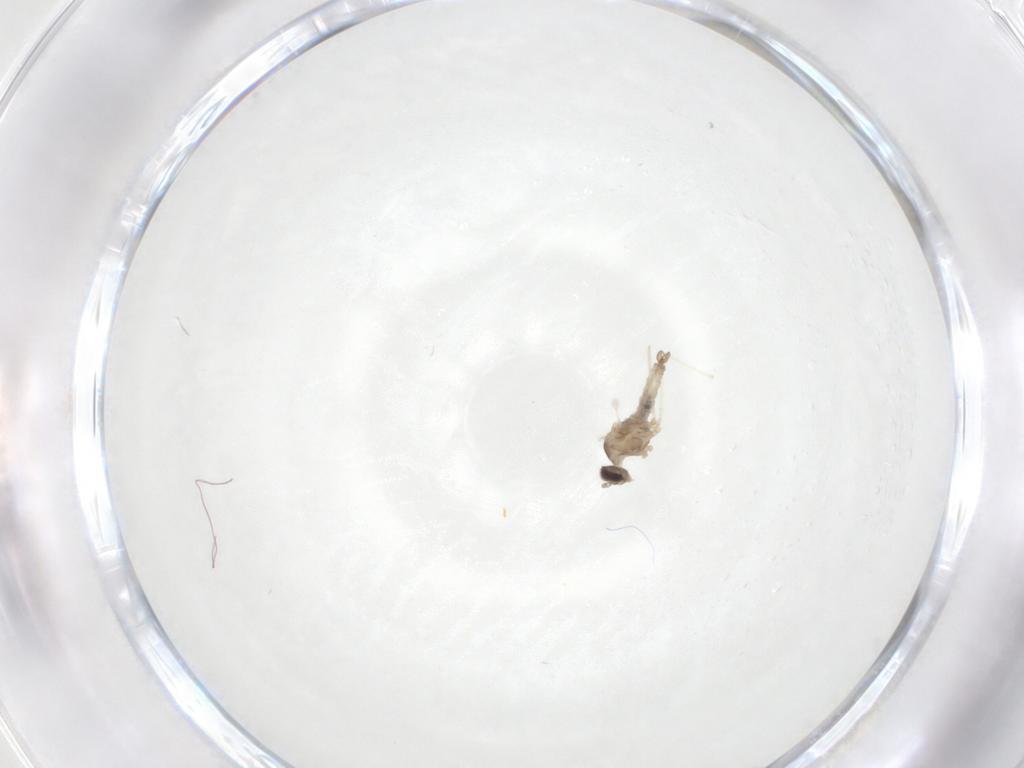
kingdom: Animalia
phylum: Arthropoda
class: Insecta
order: Diptera
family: Cecidomyiidae
